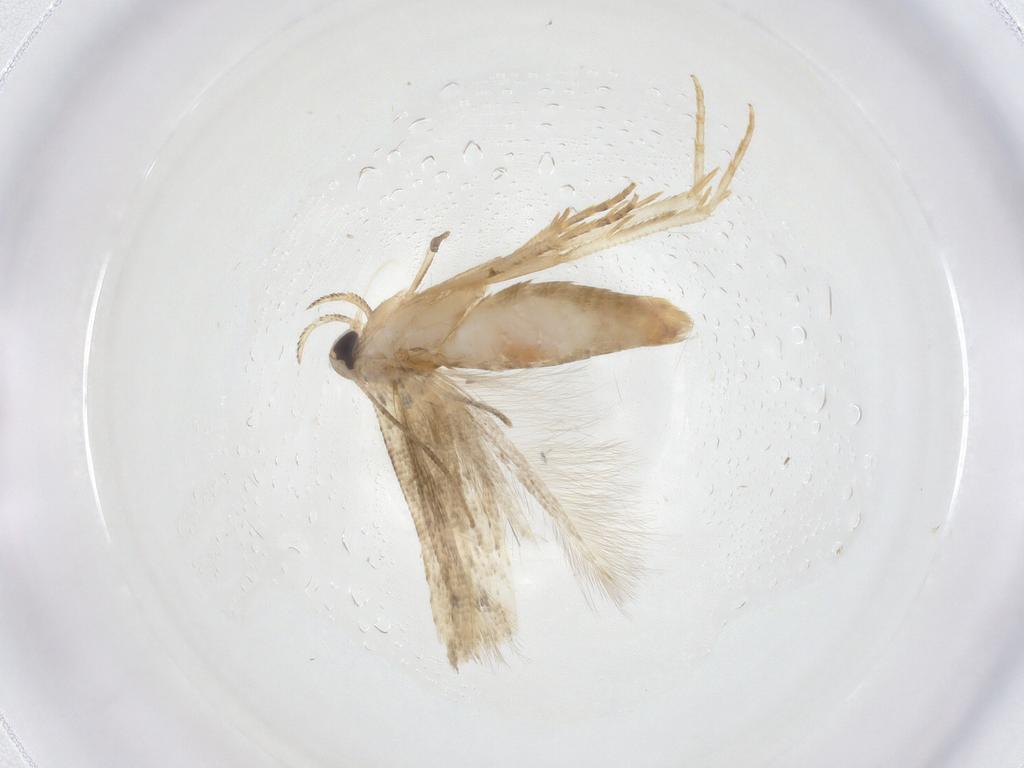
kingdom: Animalia
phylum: Arthropoda
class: Insecta
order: Lepidoptera
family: Gelechiidae
